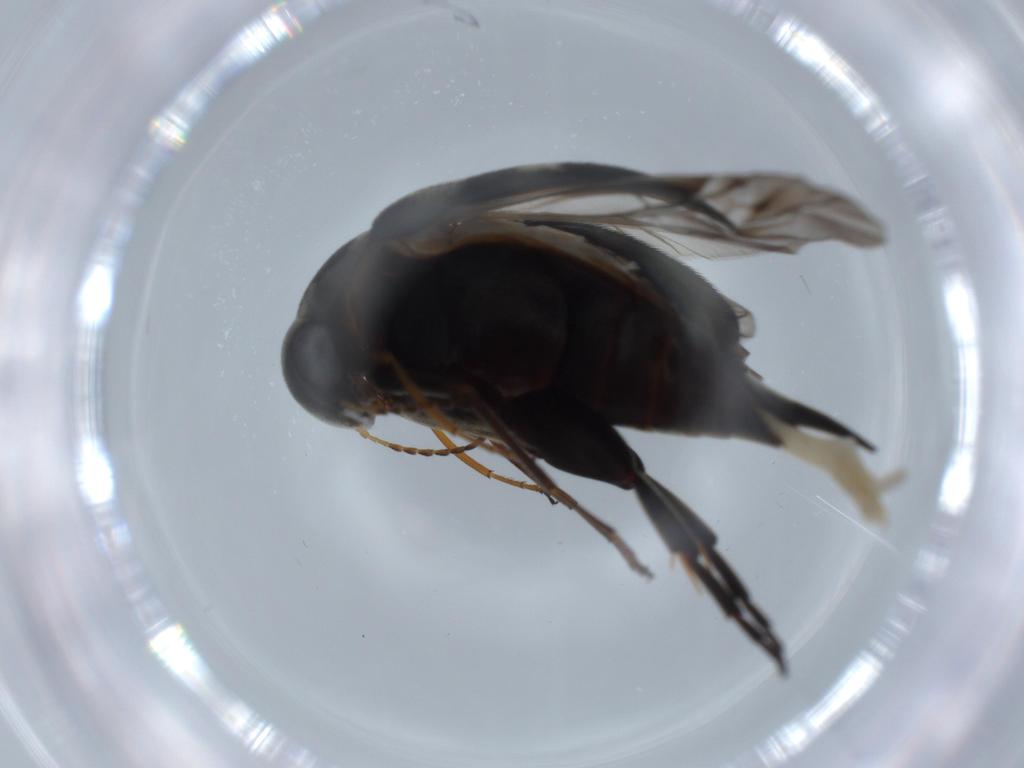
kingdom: Animalia
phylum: Arthropoda
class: Insecta
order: Coleoptera
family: Mordellidae
